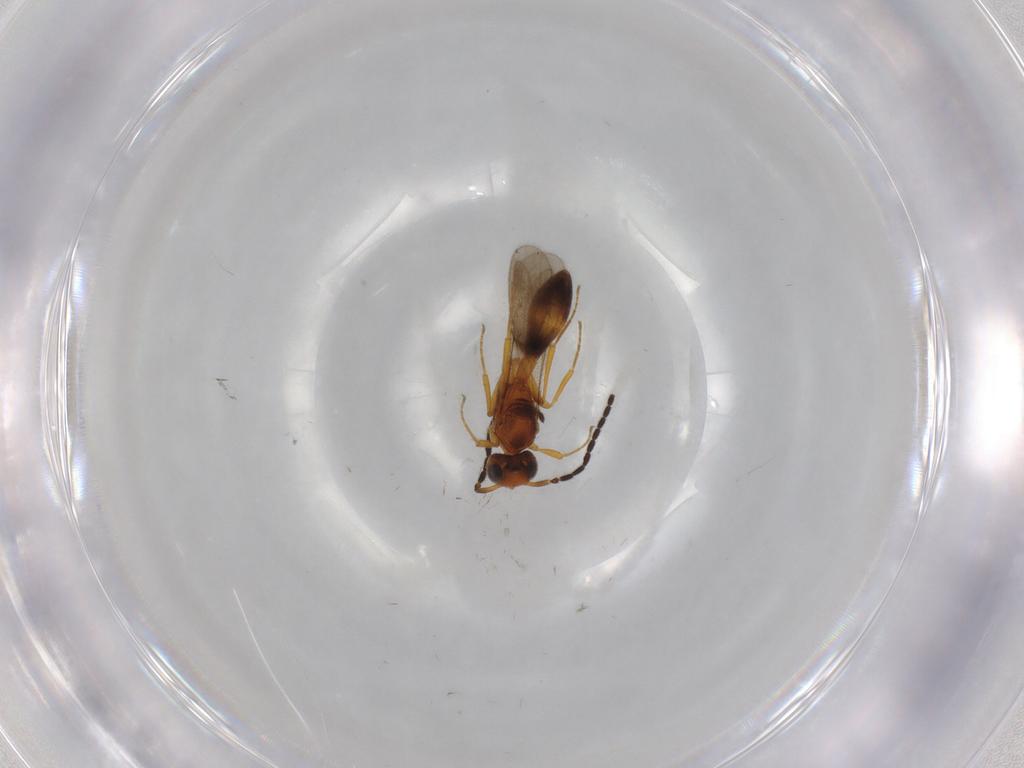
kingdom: Animalia
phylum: Arthropoda
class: Insecta
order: Hymenoptera
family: Scelionidae
